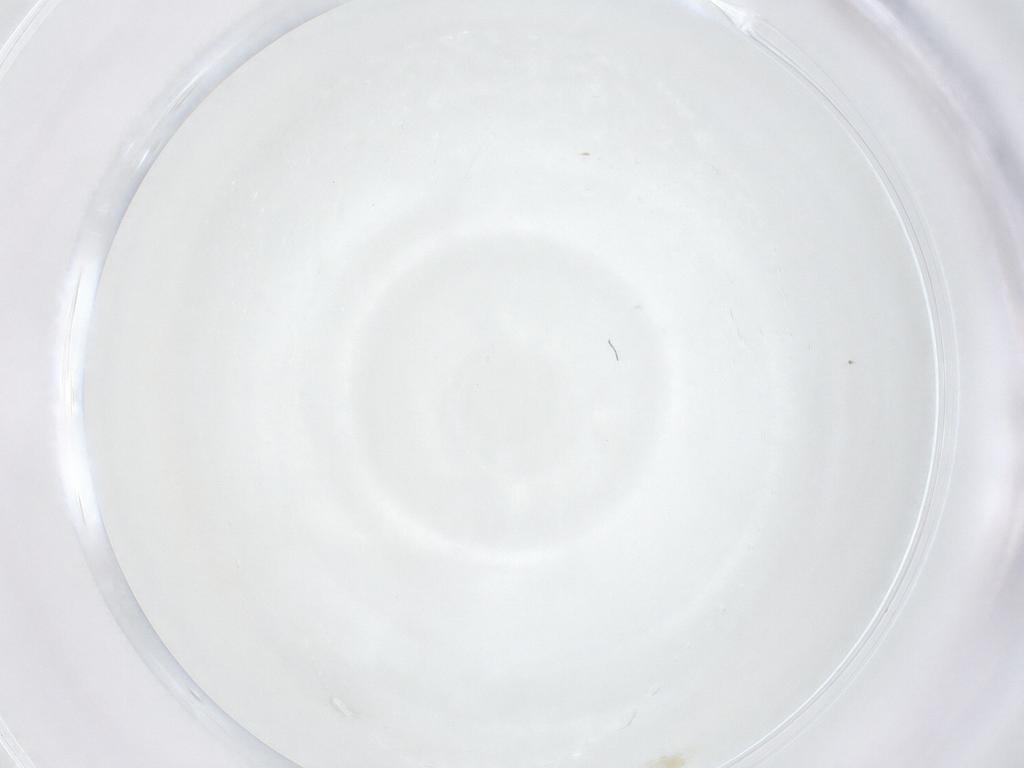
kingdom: Animalia
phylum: Arthropoda
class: Arachnida
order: Trombidiformes
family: Tetranychidae
